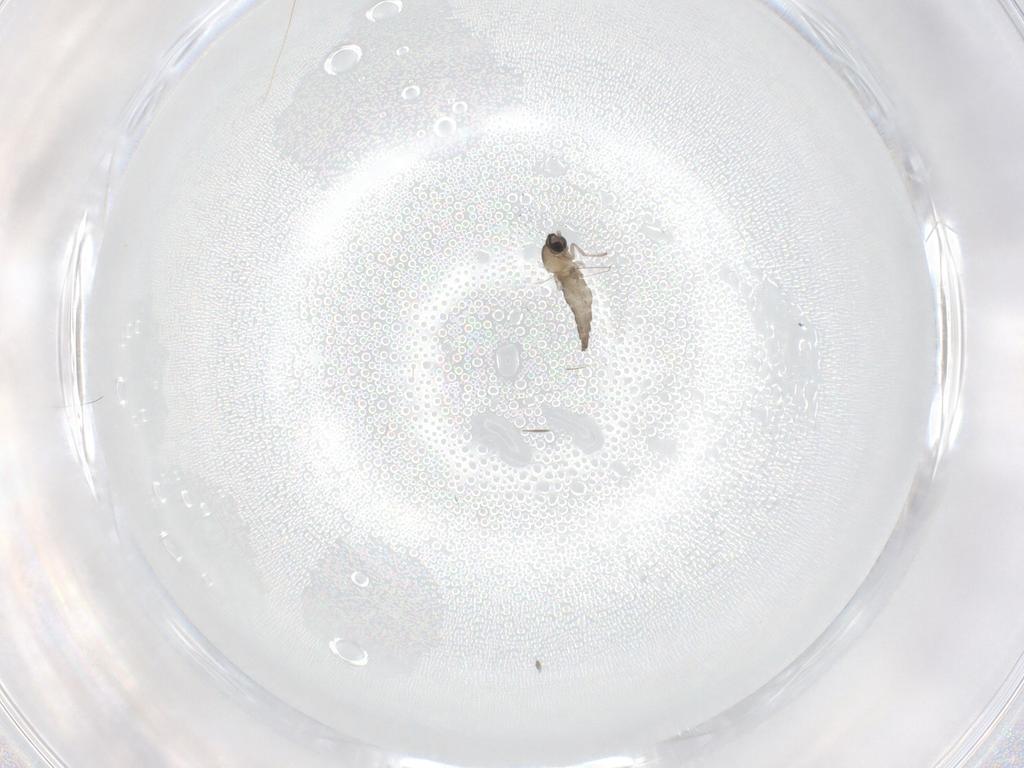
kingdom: Animalia
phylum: Arthropoda
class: Insecta
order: Diptera
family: Cecidomyiidae
